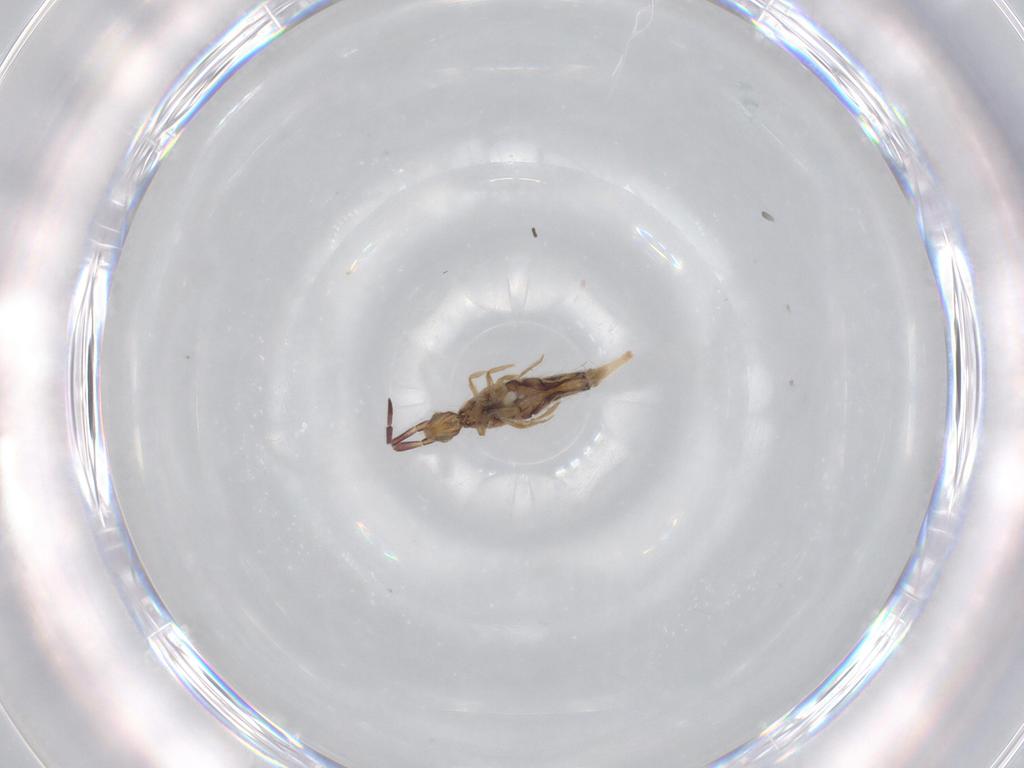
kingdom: Animalia
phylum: Arthropoda
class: Collembola
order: Entomobryomorpha
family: Entomobryidae
